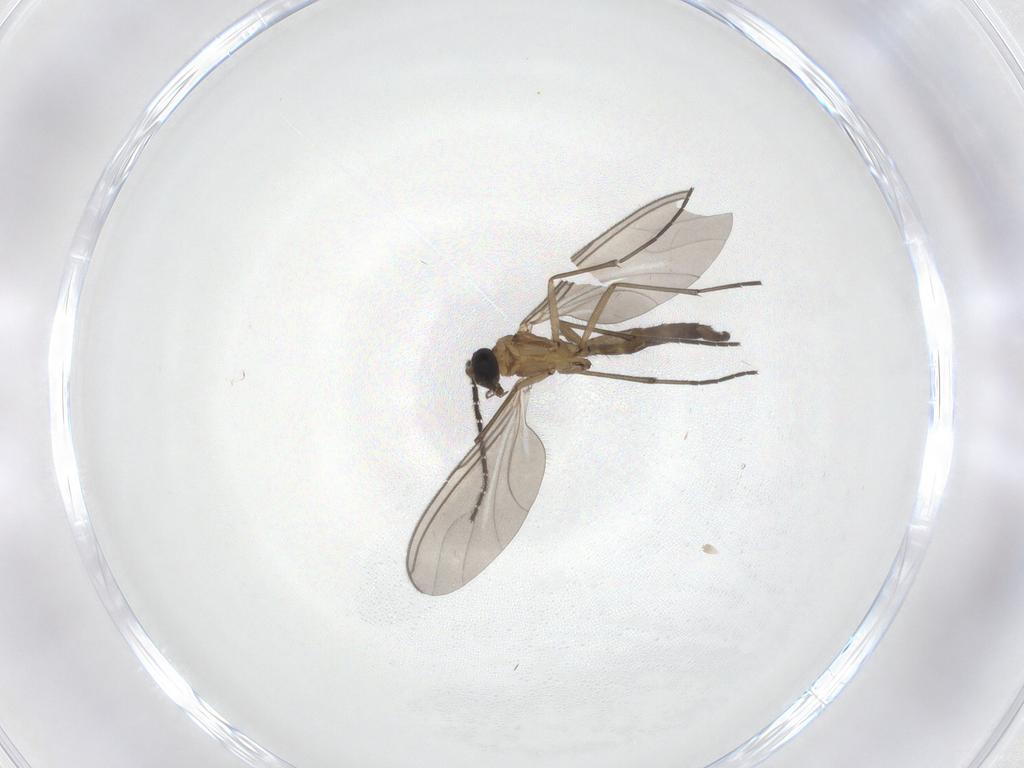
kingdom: Animalia
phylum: Arthropoda
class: Insecta
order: Diptera
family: Sciaridae
